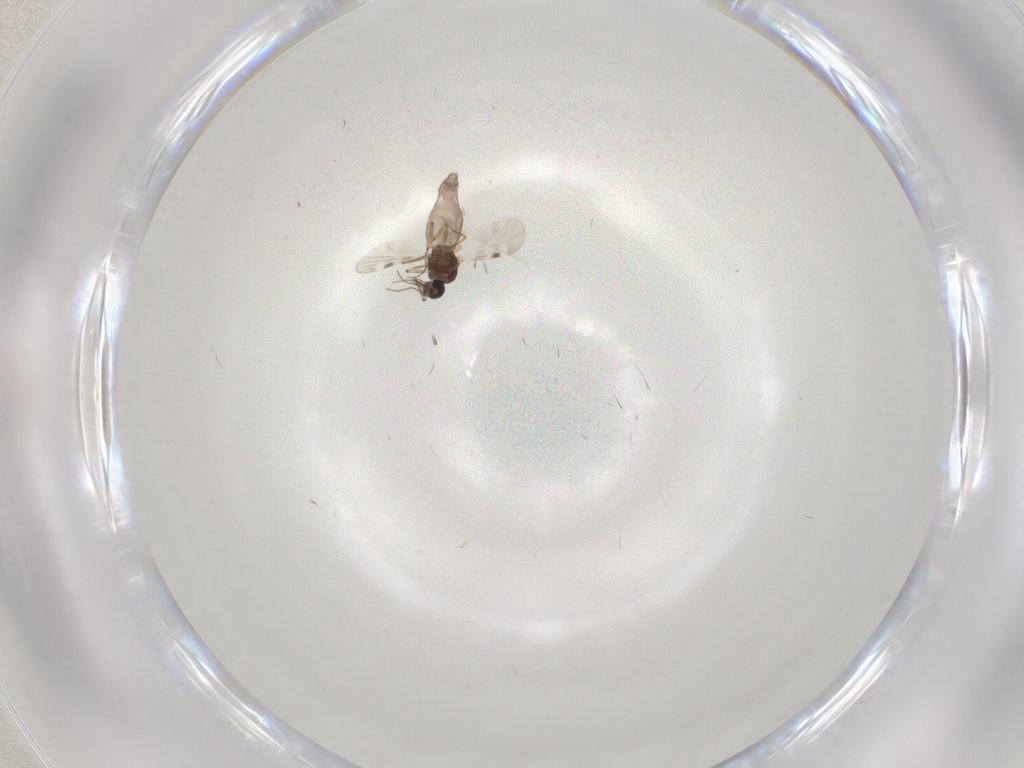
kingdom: Animalia
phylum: Arthropoda
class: Insecta
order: Diptera
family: Psychodidae
